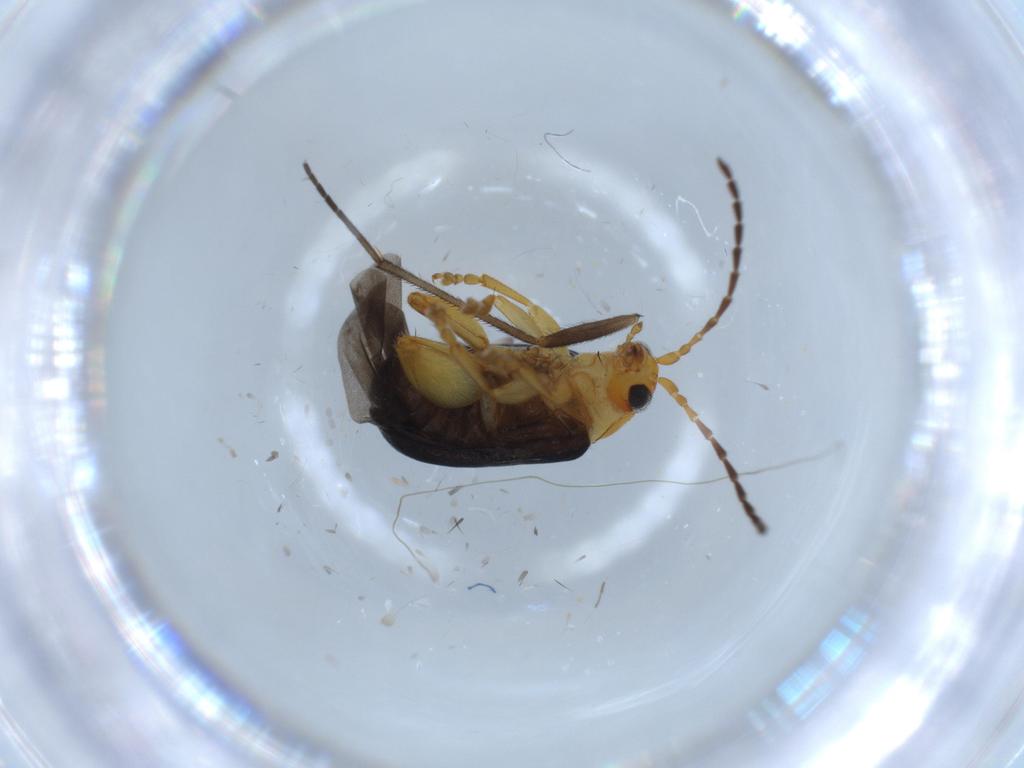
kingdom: Animalia
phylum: Arthropoda
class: Insecta
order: Coleoptera
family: Throscidae
